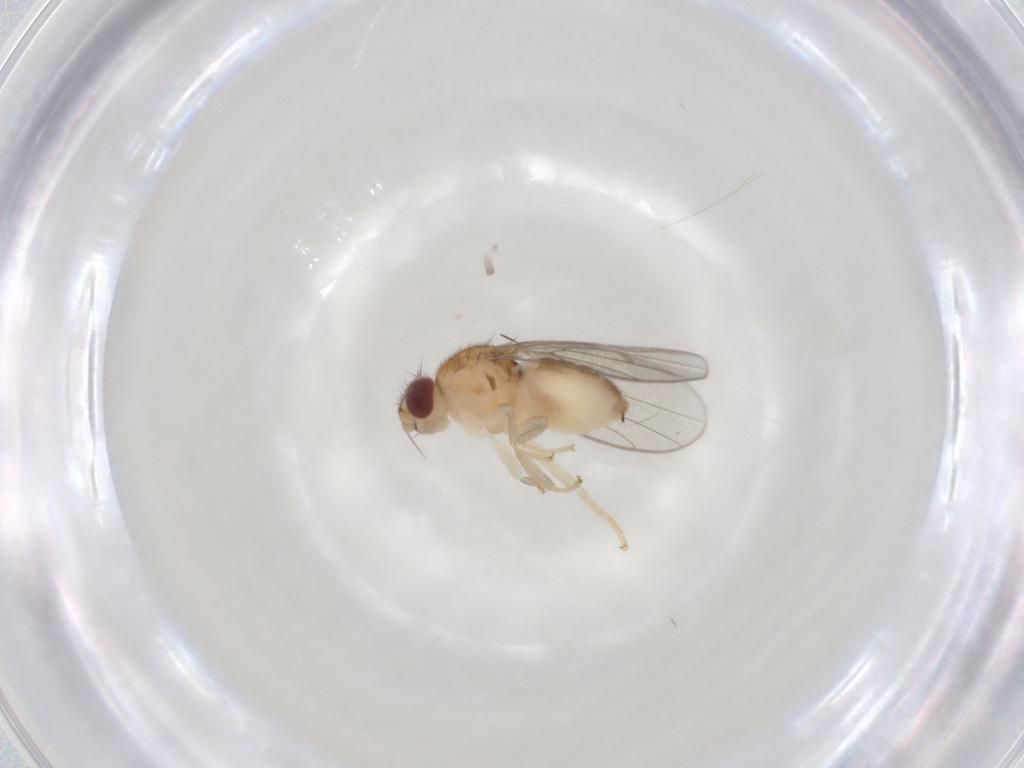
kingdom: Animalia
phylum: Arthropoda
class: Insecta
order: Diptera
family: Chloropidae
